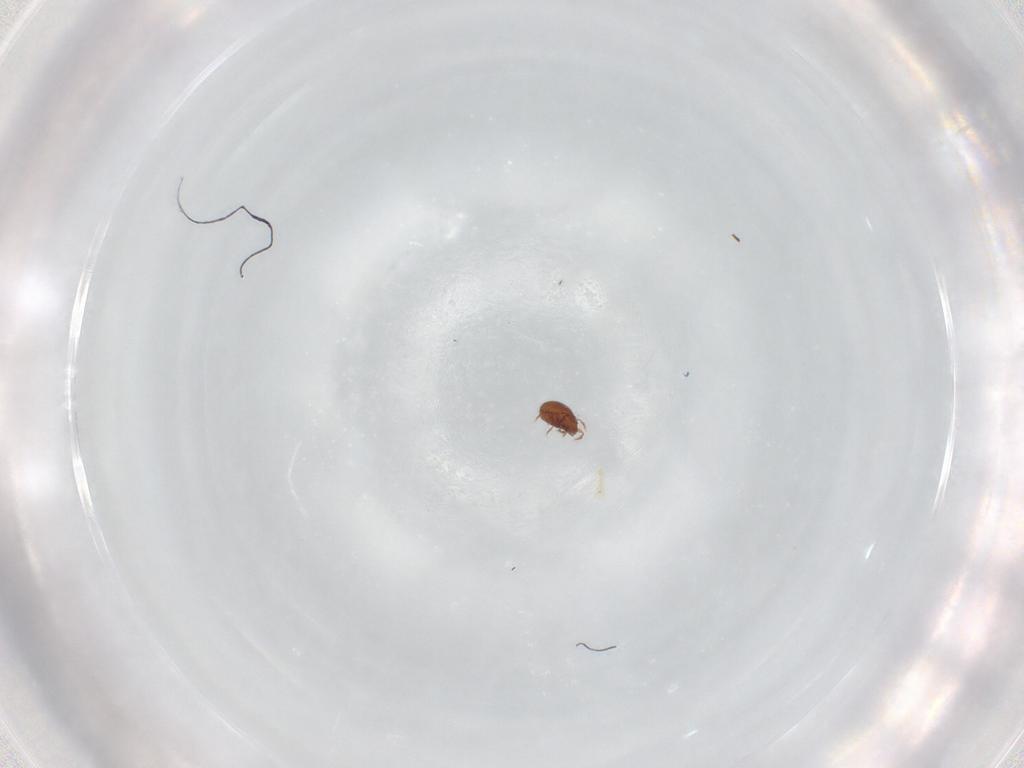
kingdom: Animalia
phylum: Arthropoda
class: Arachnida
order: Sarcoptiformes
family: Oribatulidae
